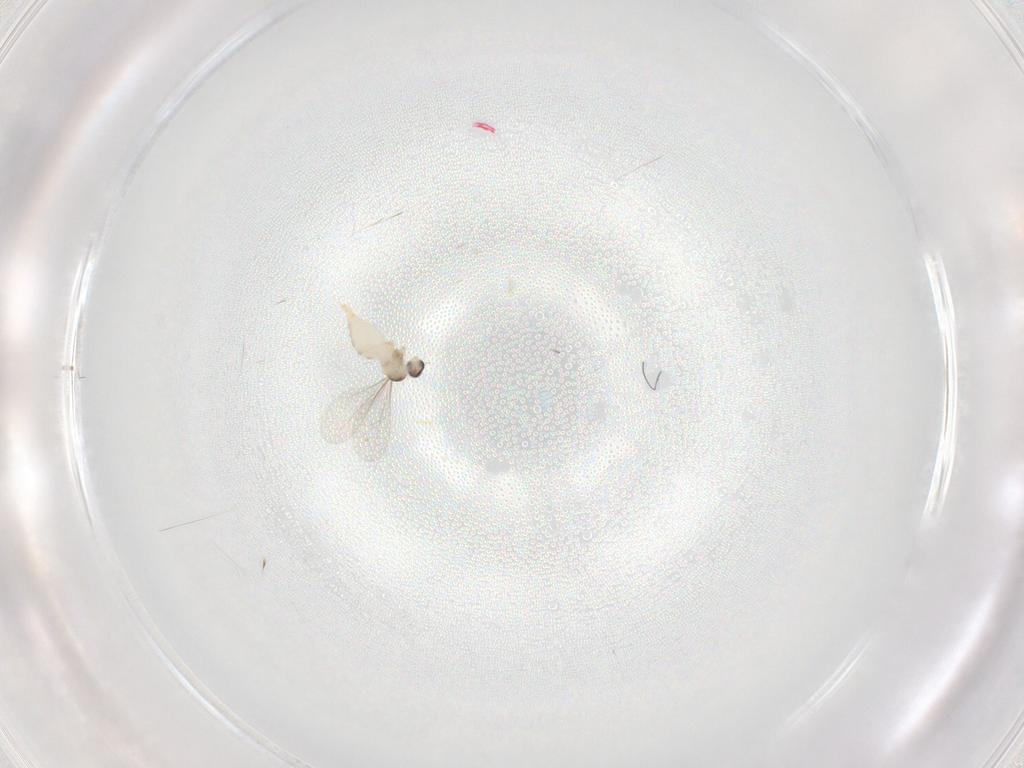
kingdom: Animalia
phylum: Arthropoda
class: Insecta
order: Diptera
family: Cecidomyiidae
